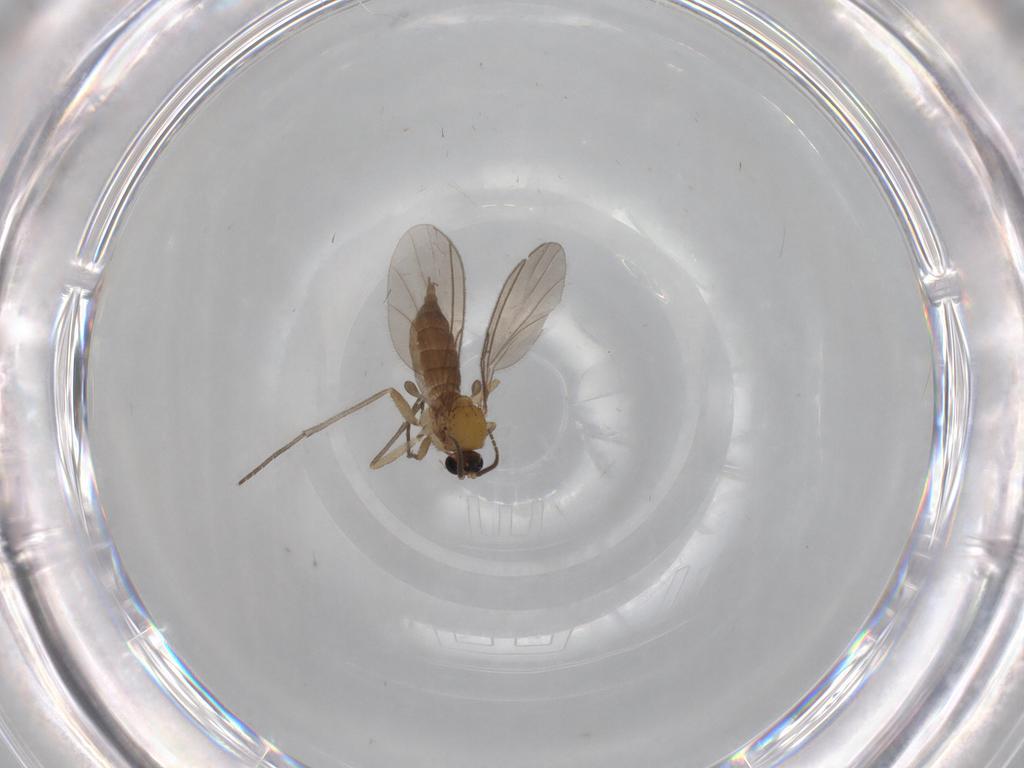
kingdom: Animalia
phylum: Arthropoda
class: Insecta
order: Diptera
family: Sciaridae
